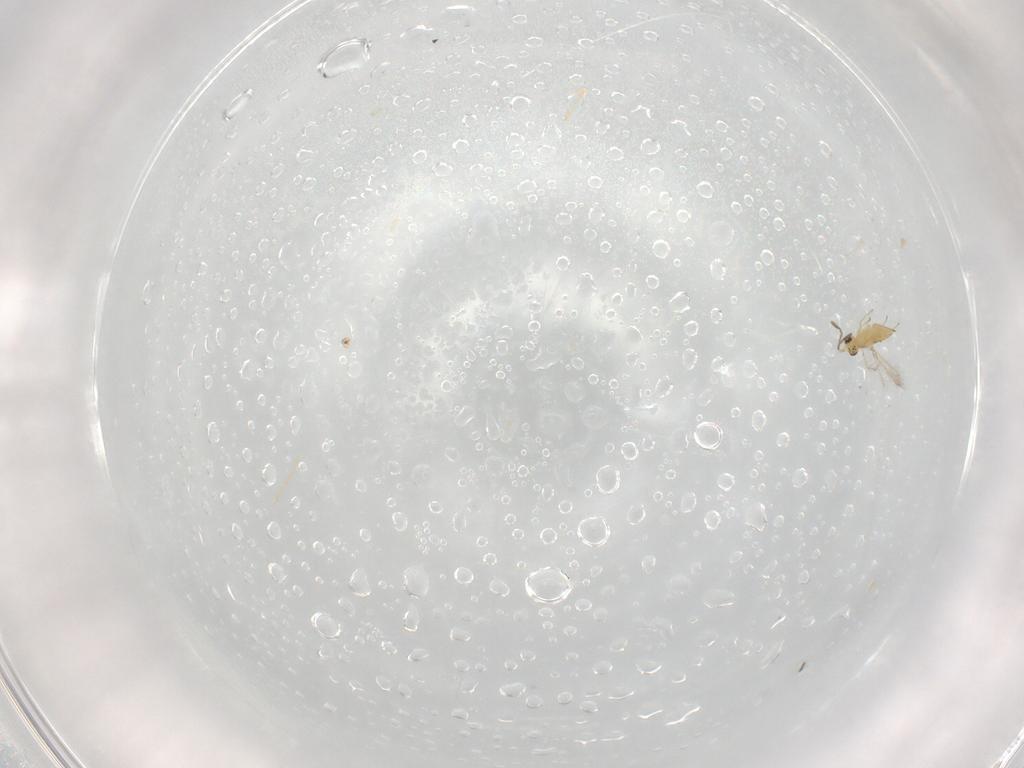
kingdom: Animalia
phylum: Arthropoda
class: Insecta
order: Hymenoptera
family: Mymaridae
